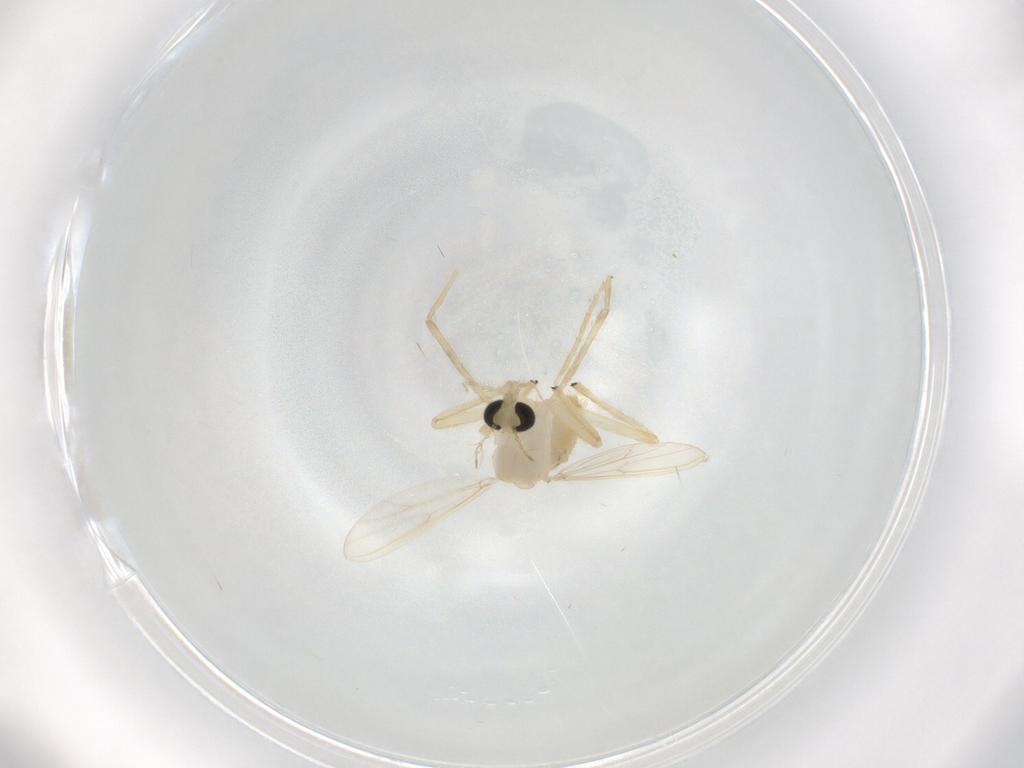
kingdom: Animalia
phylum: Arthropoda
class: Insecta
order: Diptera
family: Chironomidae
